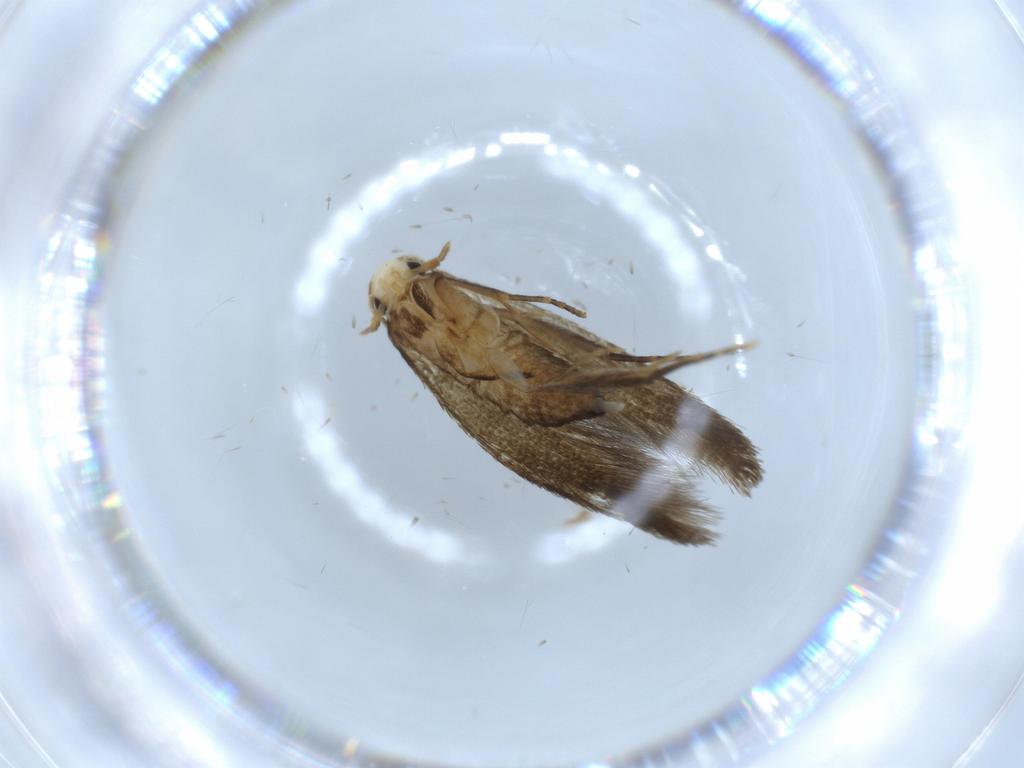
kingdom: Animalia
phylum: Arthropoda
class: Insecta
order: Lepidoptera
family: Tineidae
